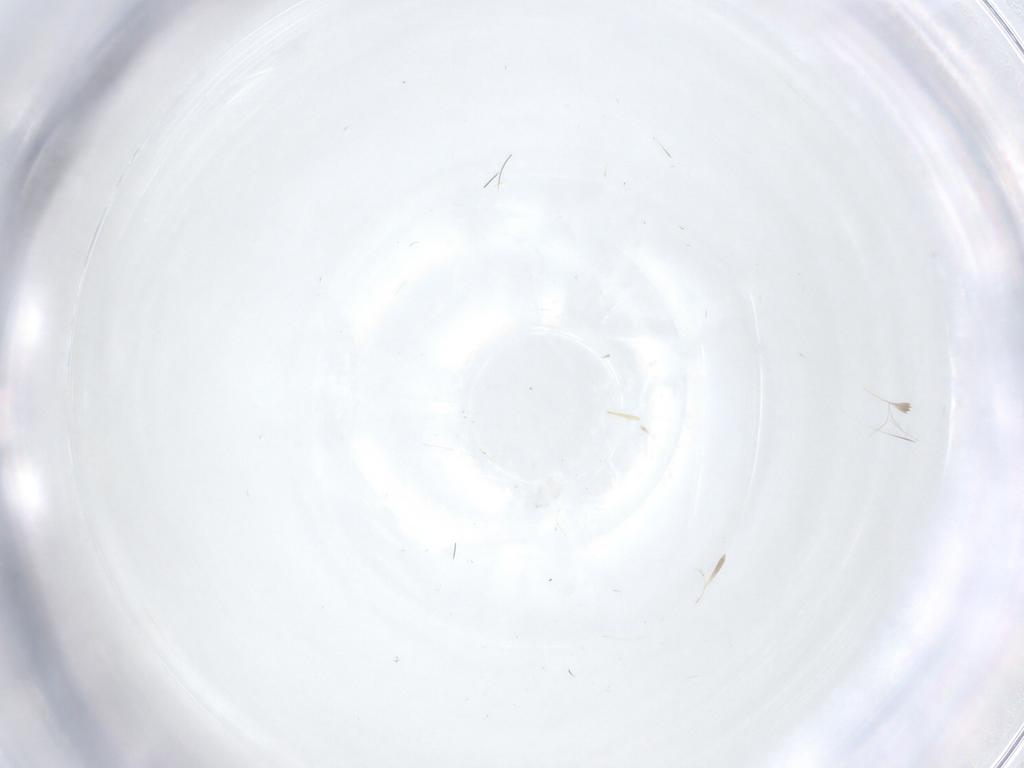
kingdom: Animalia
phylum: Arthropoda
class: Insecta
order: Diptera
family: Dolichopodidae
